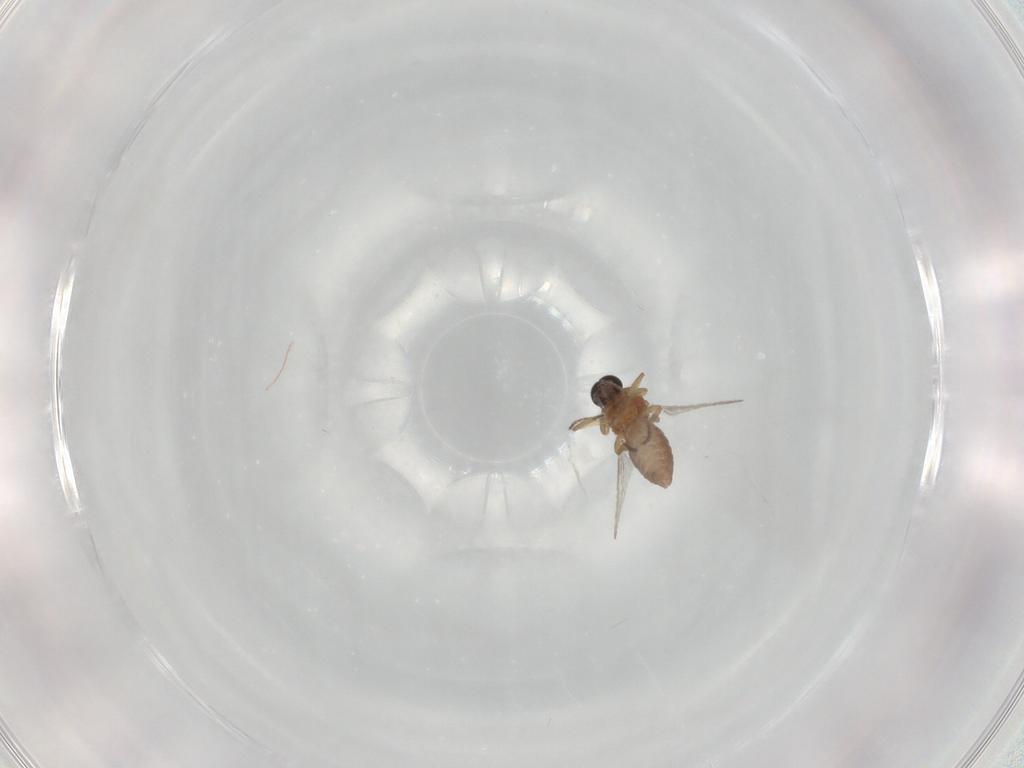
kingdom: Animalia
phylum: Arthropoda
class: Insecta
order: Diptera
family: Ceratopogonidae
